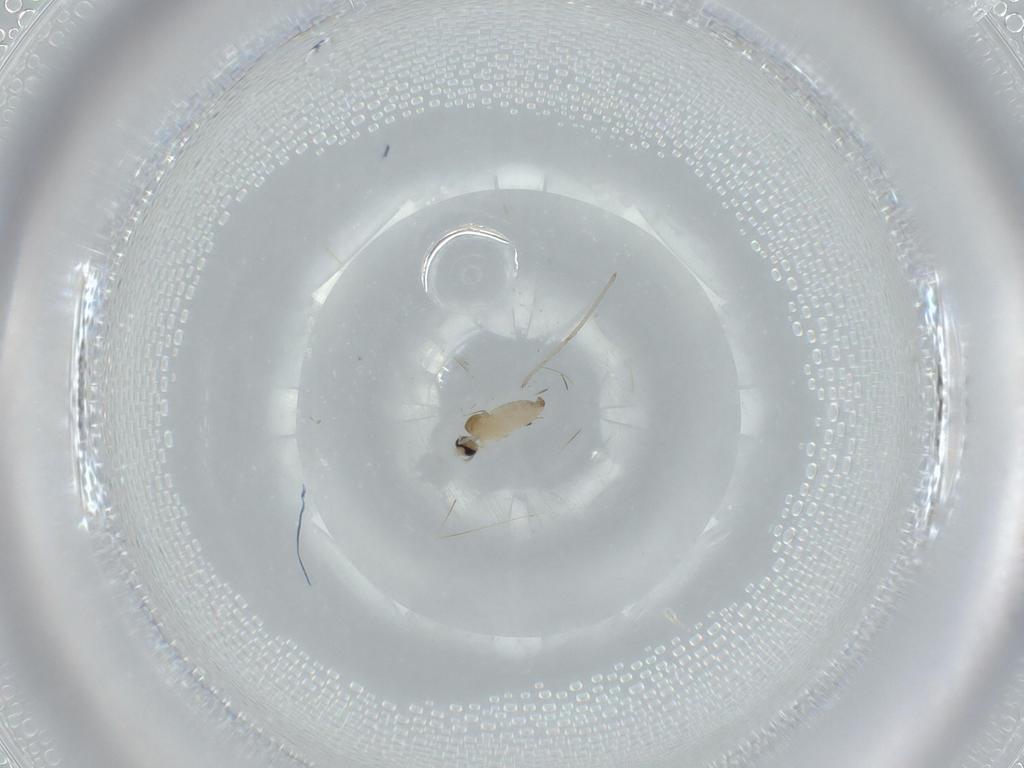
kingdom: Animalia
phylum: Arthropoda
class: Insecta
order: Diptera
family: Cecidomyiidae
